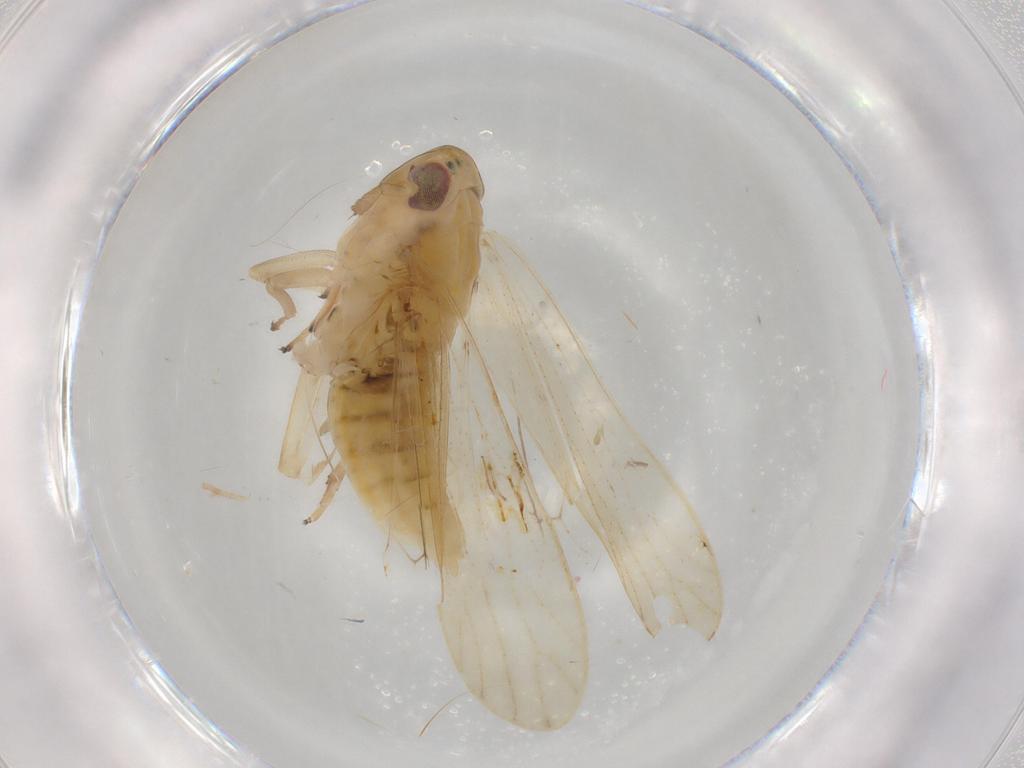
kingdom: Animalia
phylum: Arthropoda
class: Insecta
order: Hemiptera
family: Delphacidae
